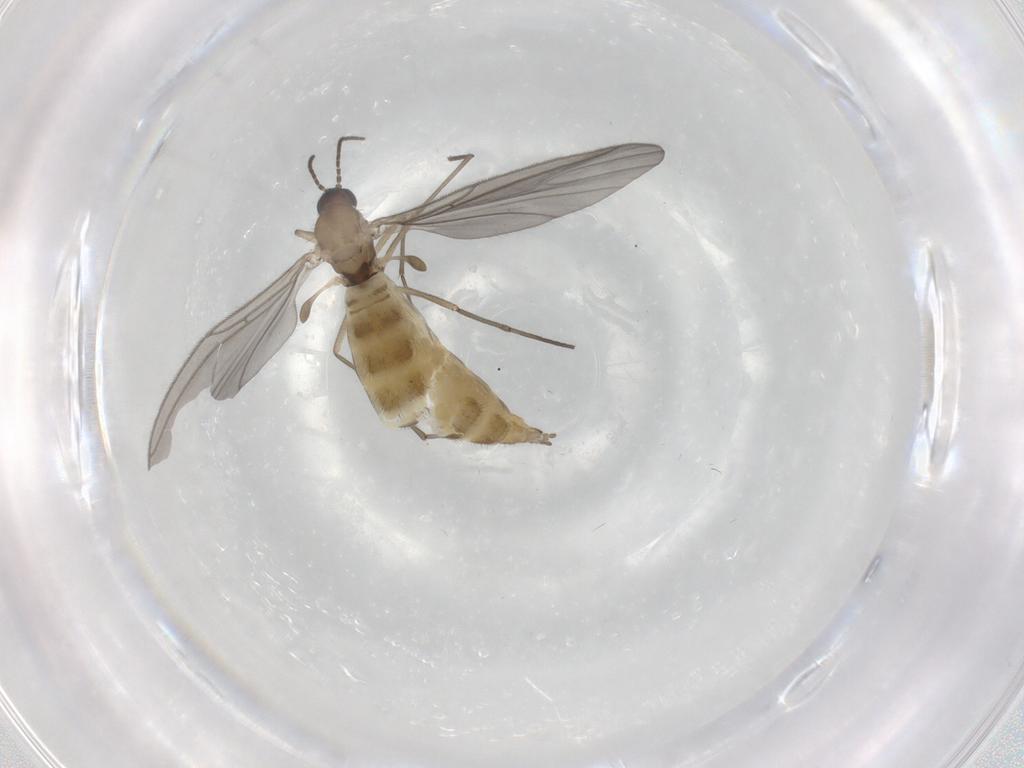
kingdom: Animalia
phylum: Arthropoda
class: Insecta
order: Diptera
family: Sciaridae
